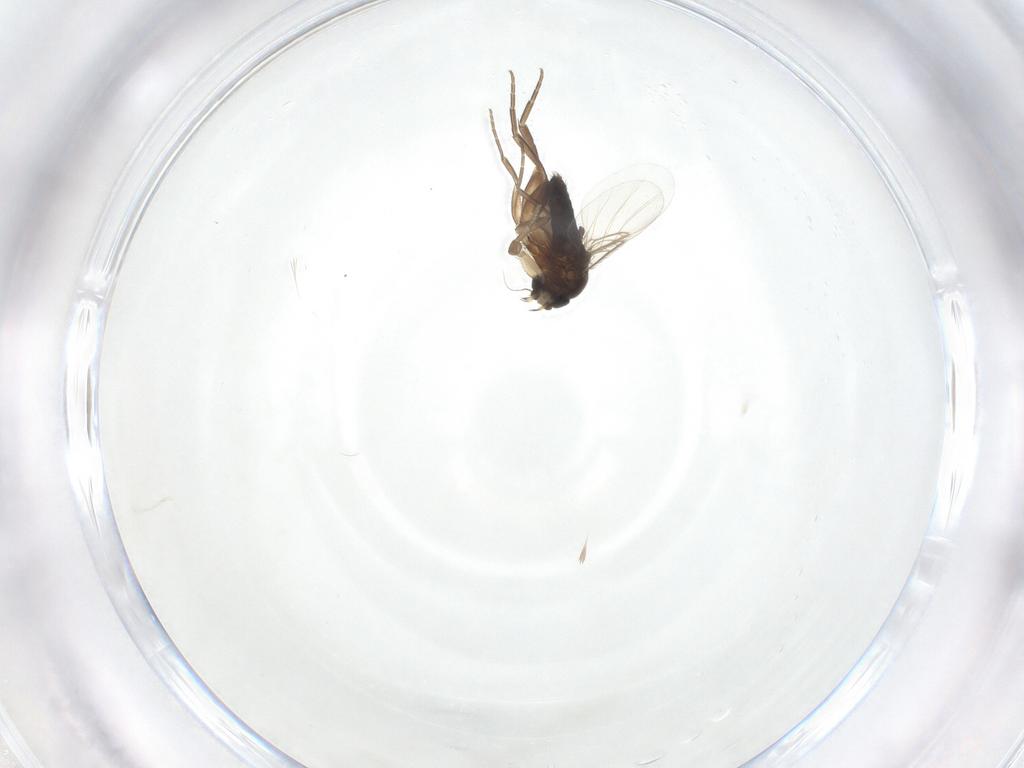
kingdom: Animalia
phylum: Arthropoda
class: Insecta
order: Diptera
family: Phoridae
